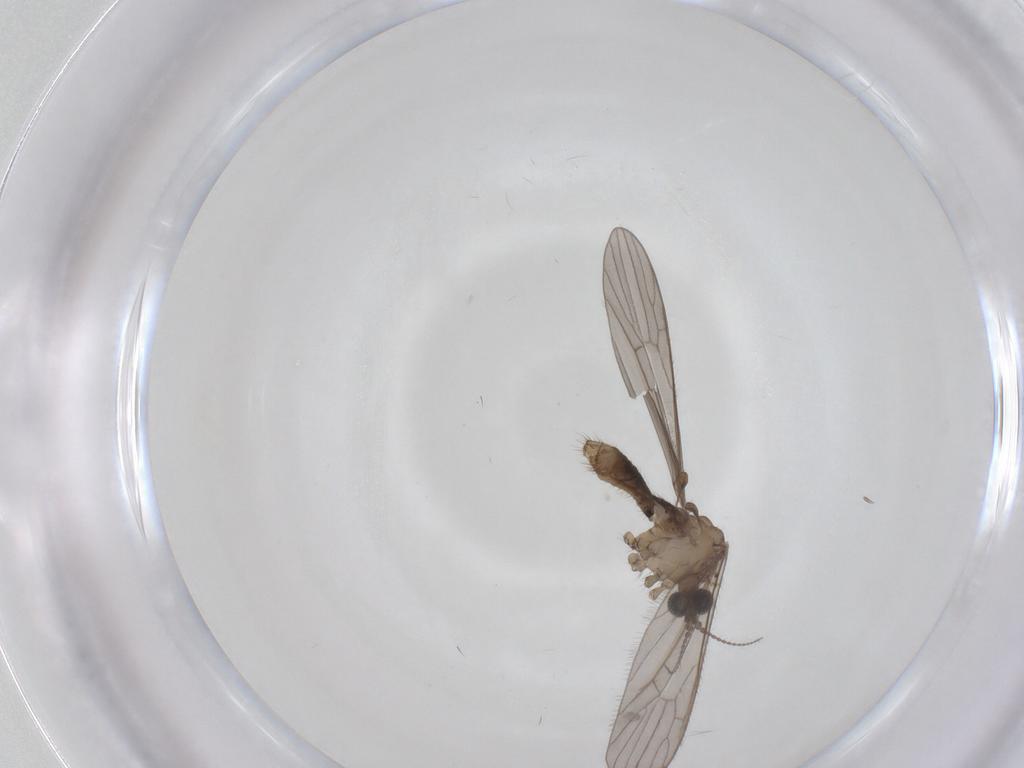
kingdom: Animalia
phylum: Arthropoda
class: Insecta
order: Diptera
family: Limoniidae
